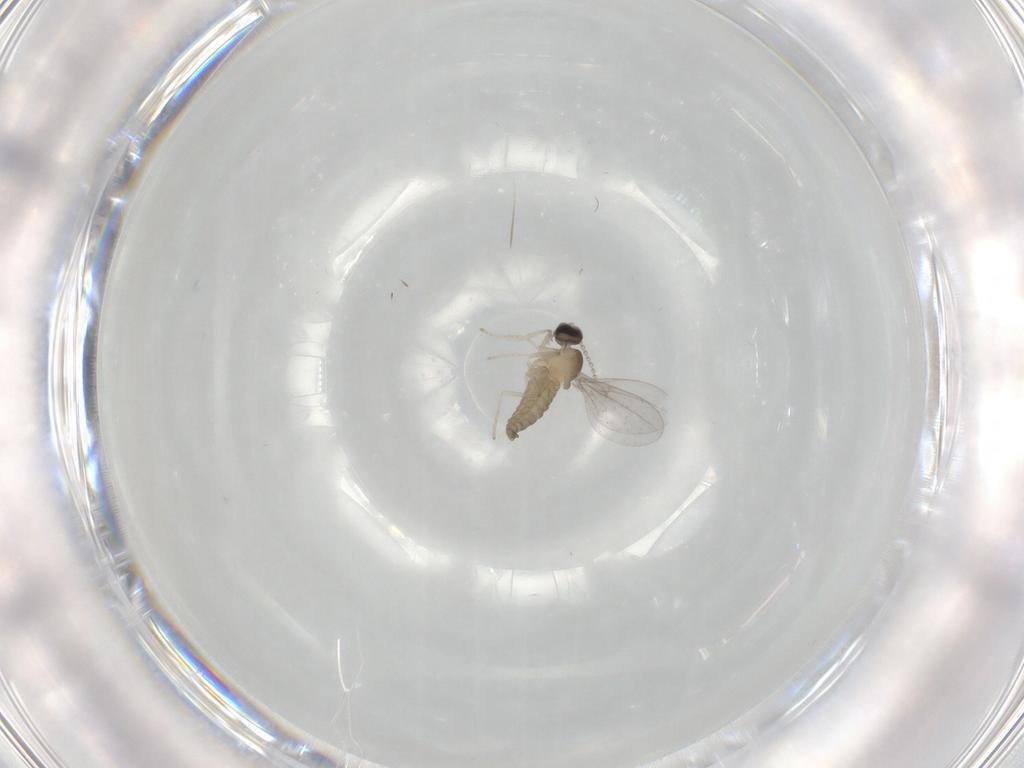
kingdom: Animalia
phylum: Arthropoda
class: Insecta
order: Diptera
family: Cecidomyiidae
